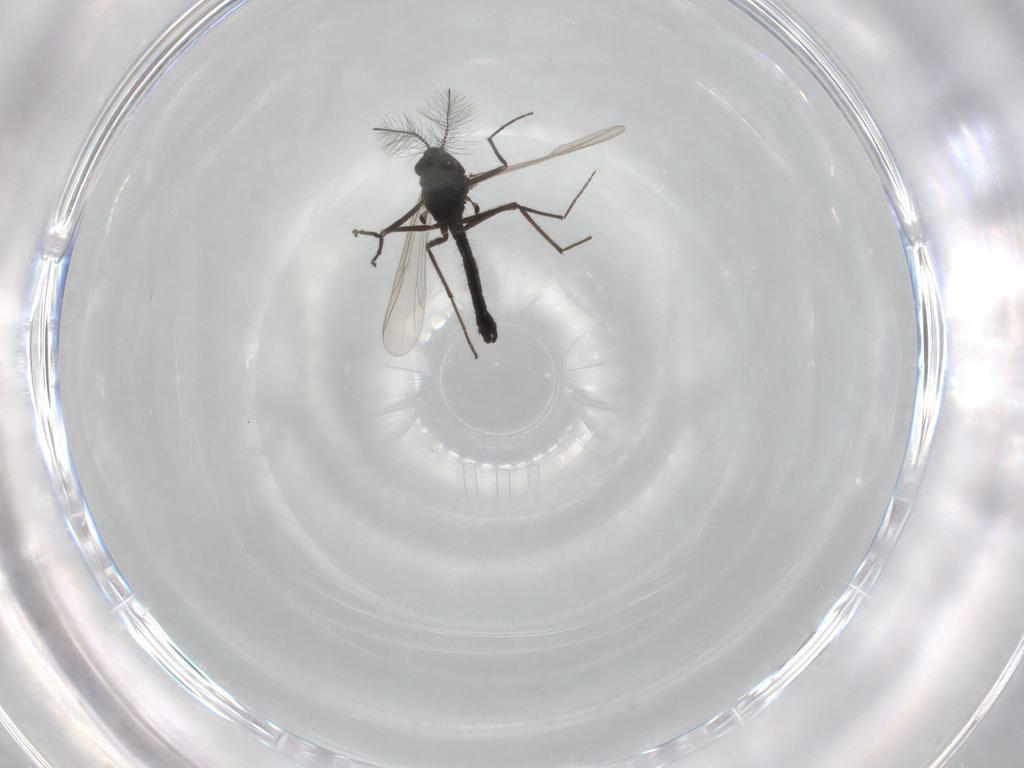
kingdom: Animalia
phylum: Arthropoda
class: Insecta
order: Diptera
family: Chironomidae
